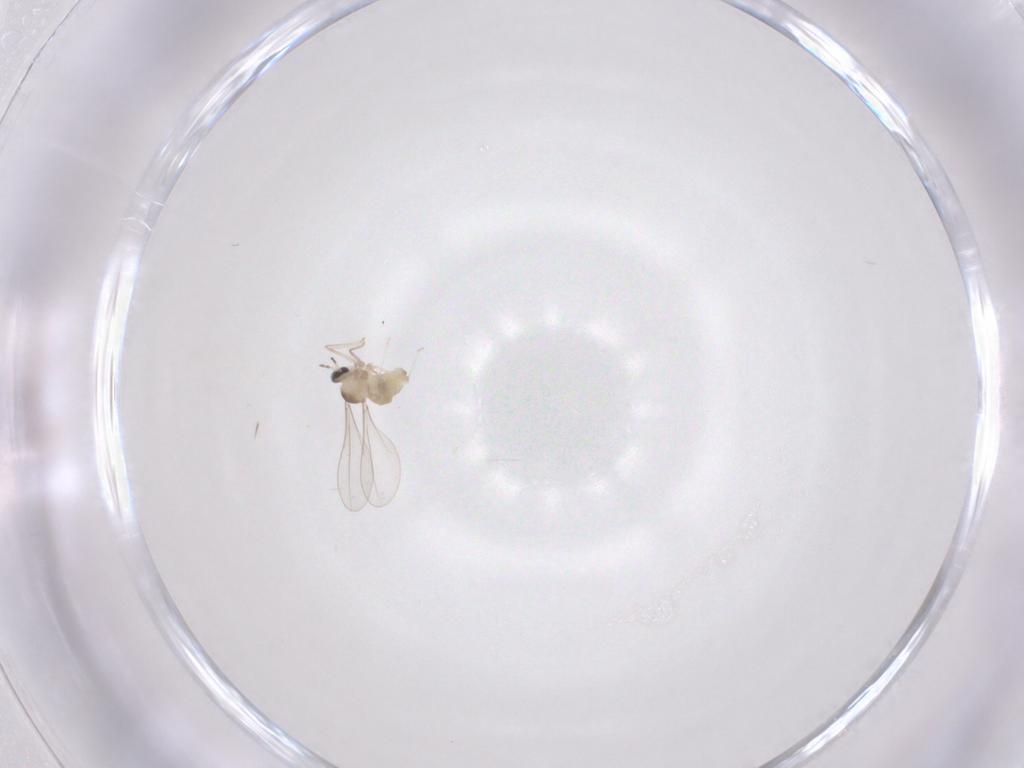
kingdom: Animalia
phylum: Arthropoda
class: Insecta
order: Diptera
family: Cecidomyiidae
